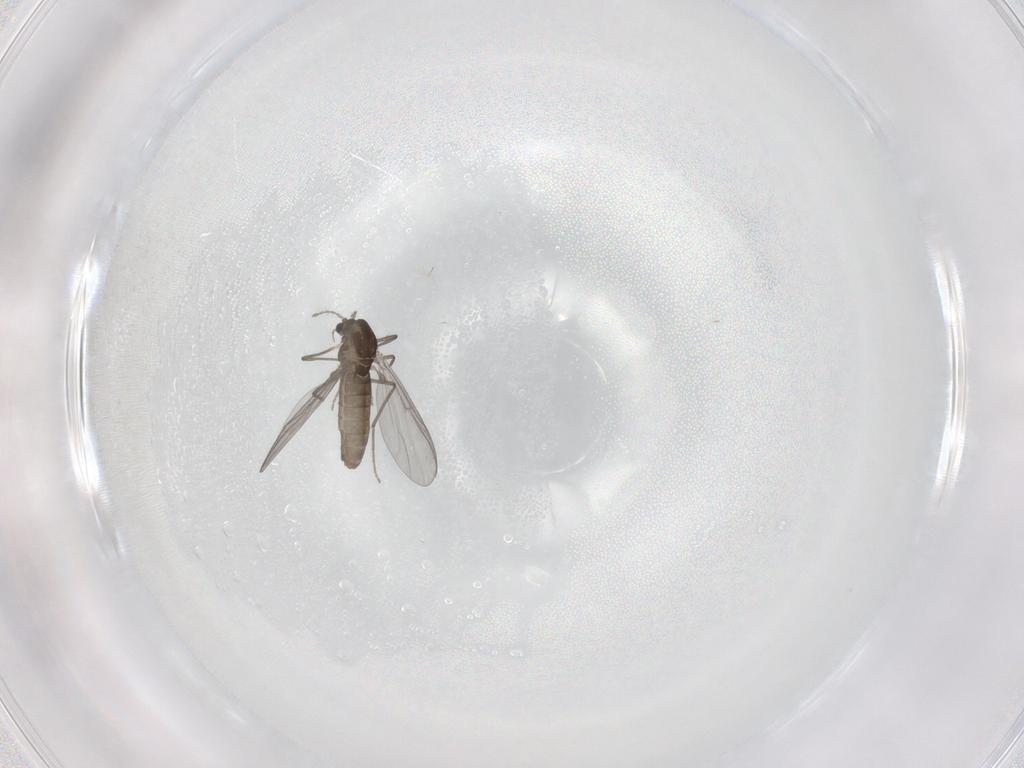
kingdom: Animalia
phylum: Arthropoda
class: Insecta
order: Diptera
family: Chironomidae
